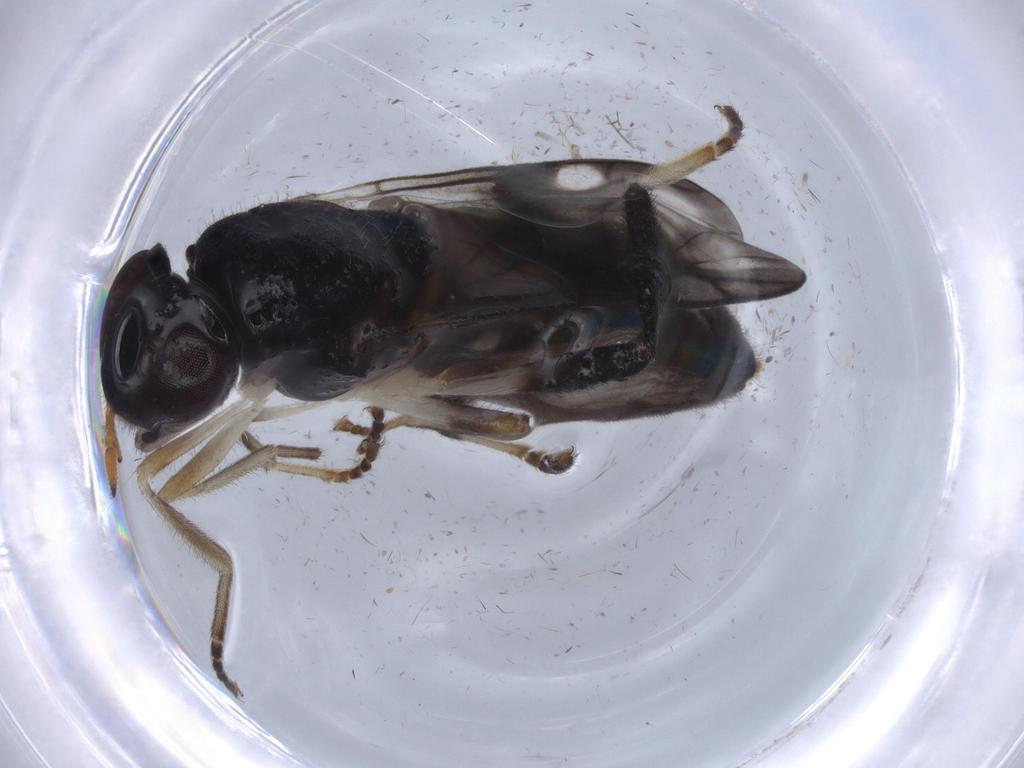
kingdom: Animalia
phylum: Arthropoda
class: Insecta
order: Diptera
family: Stratiomyidae
